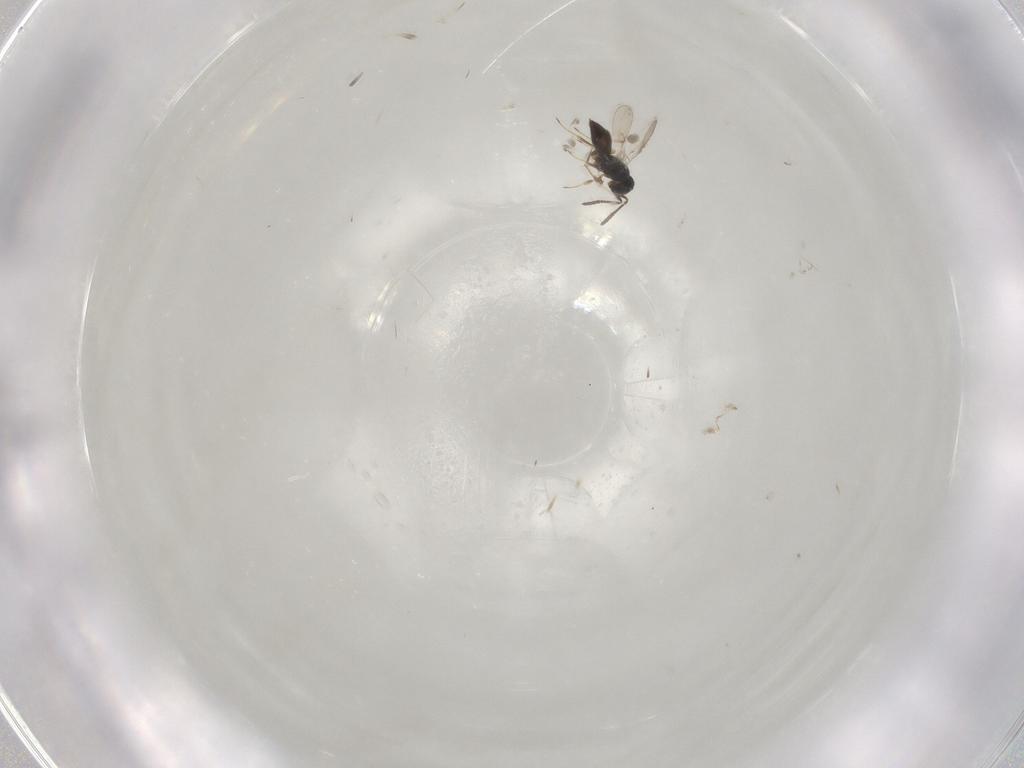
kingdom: Animalia
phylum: Arthropoda
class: Insecta
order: Hymenoptera
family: Scelionidae
